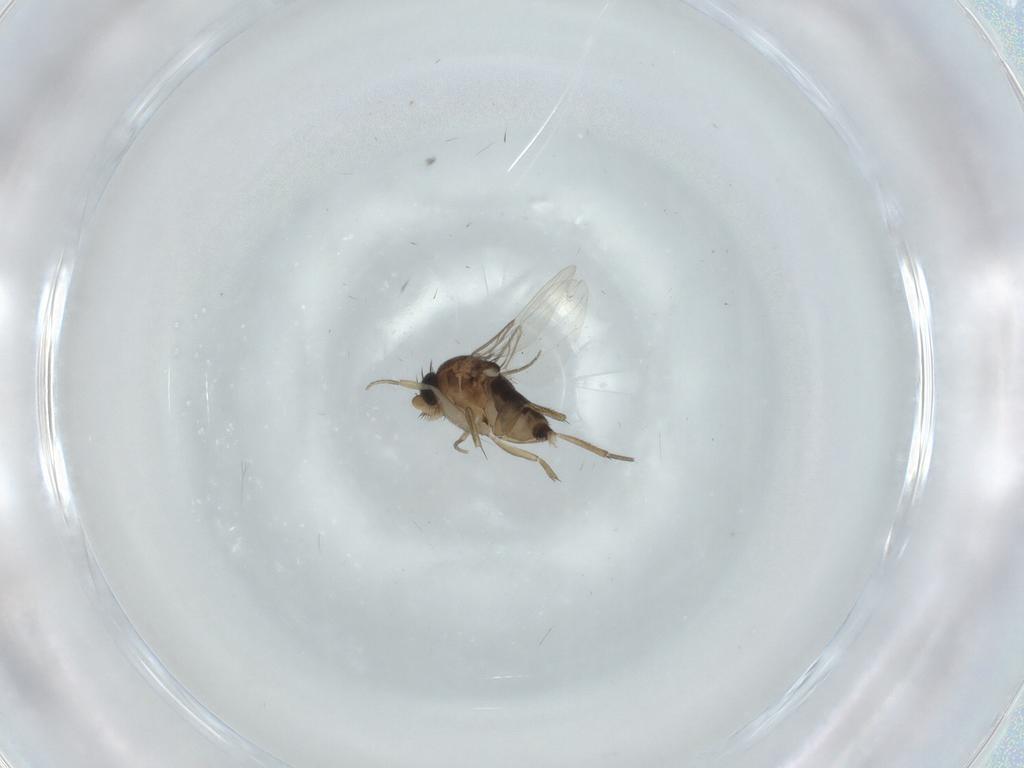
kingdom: Animalia
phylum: Arthropoda
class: Insecta
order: Diptera
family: Phoridae
